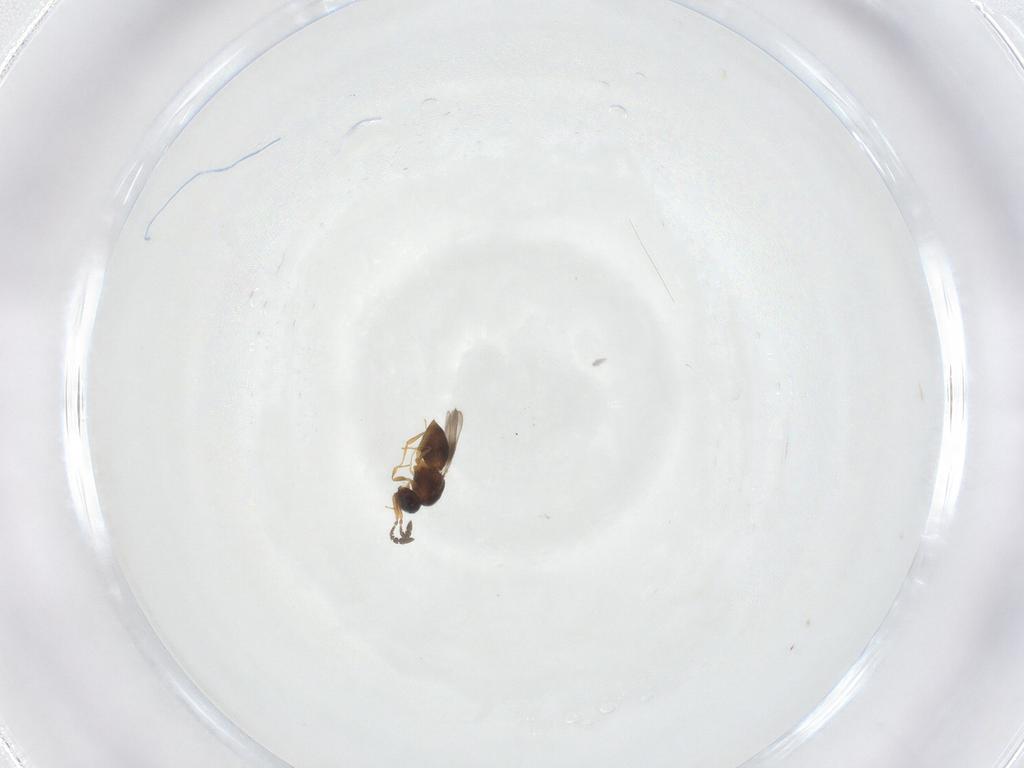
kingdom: Animalia
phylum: Arthropoda
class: Insecta
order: Hymenoptera
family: Ceraphronidae
